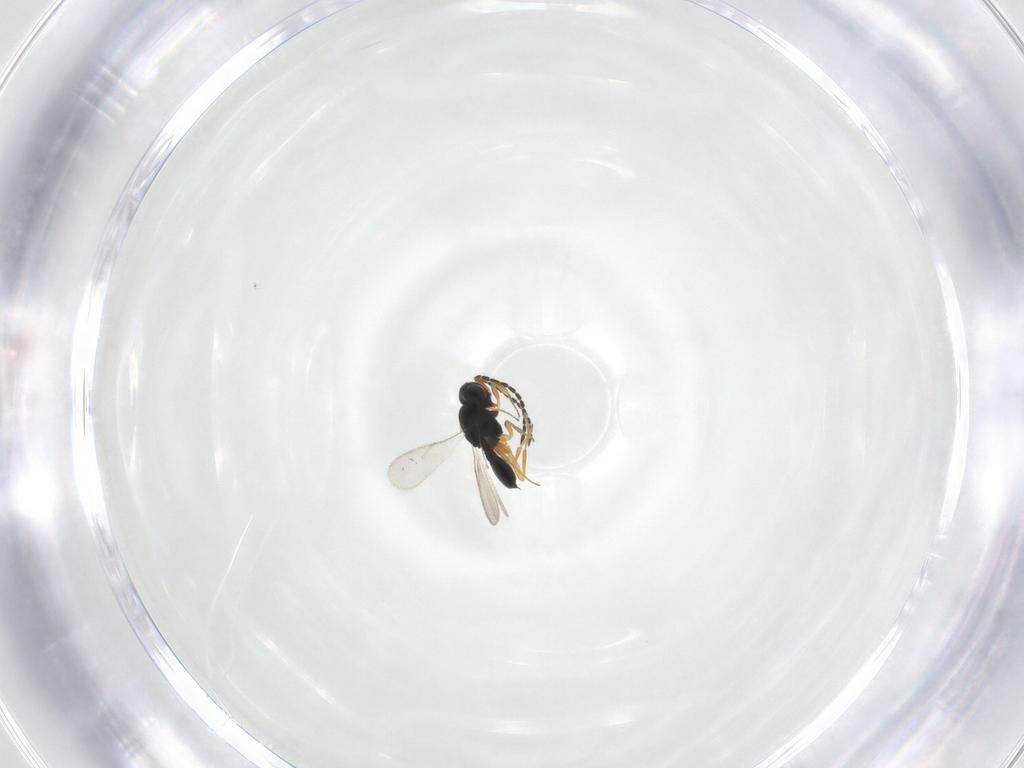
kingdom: Animalia
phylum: Arthropoda
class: Insecta
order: Hymenoptera
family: Scelionidae
